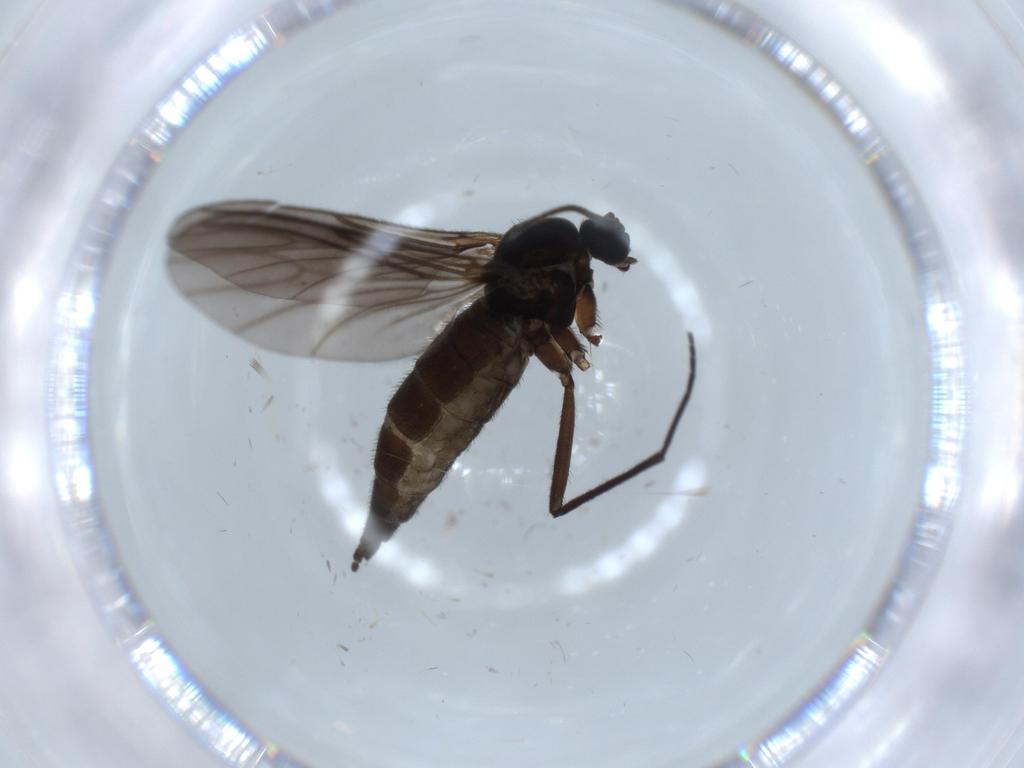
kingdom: Animalia
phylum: Arthropoda
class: Insecta
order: Diptera
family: Sciaridae
